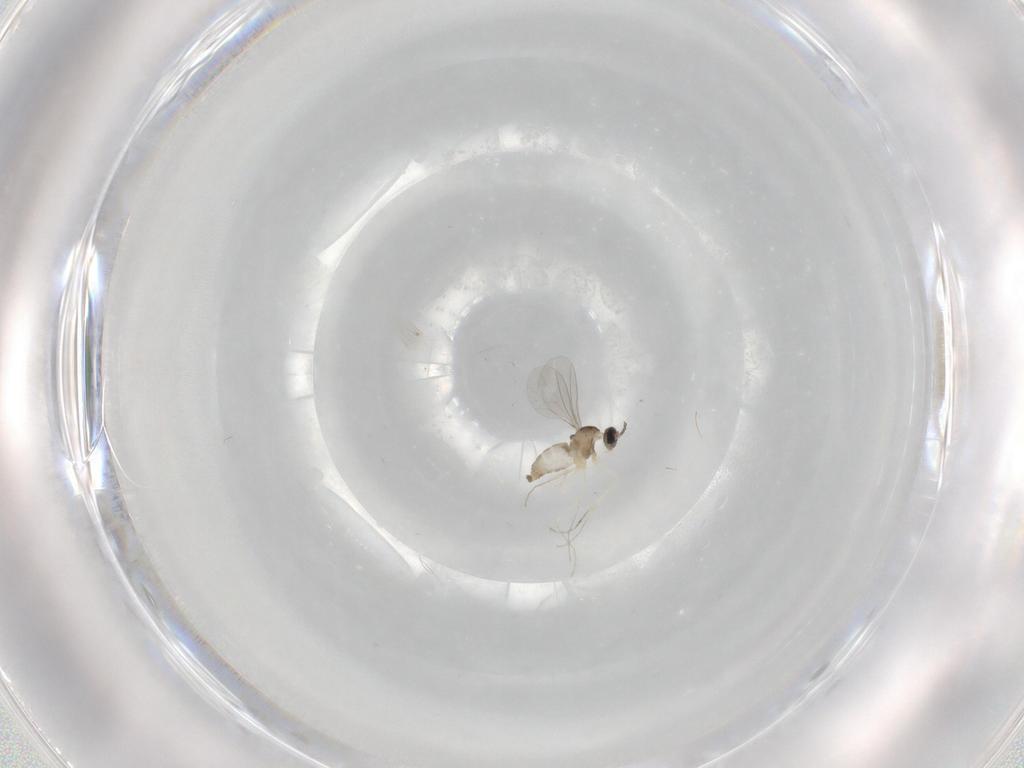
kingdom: Animalia
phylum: Arthropoda
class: Insecta
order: Diptera
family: Cecidomyiidae
